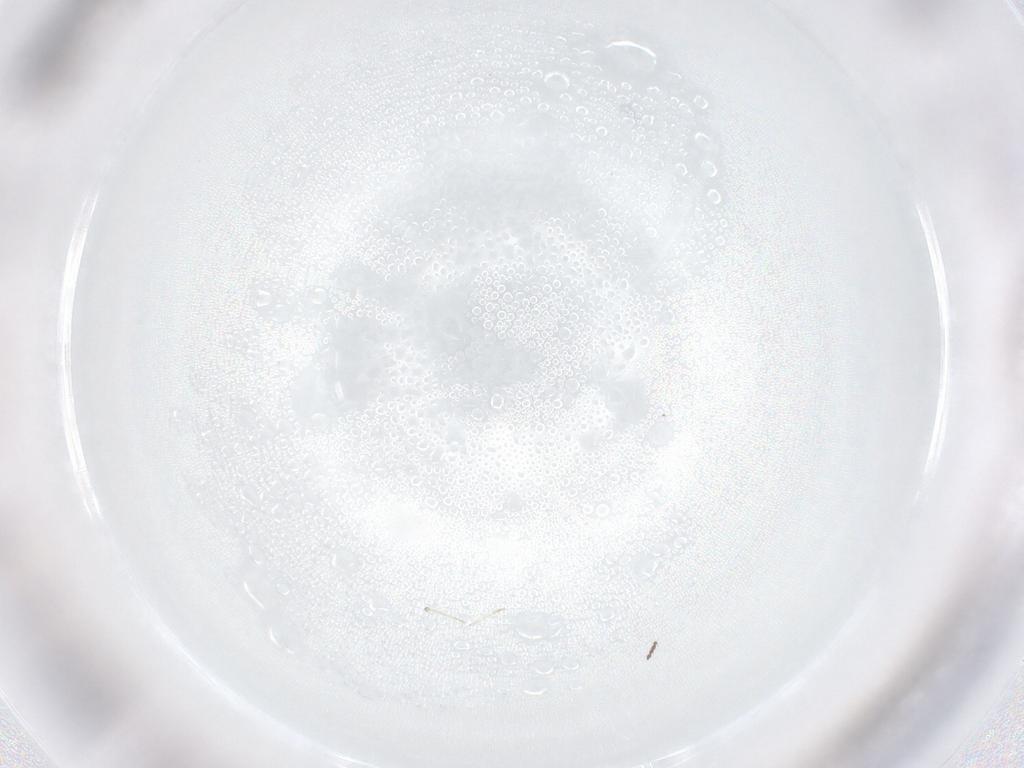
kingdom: Animalia
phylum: Arthropoda
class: Insecta
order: Diptera
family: Cecidomyiidae
